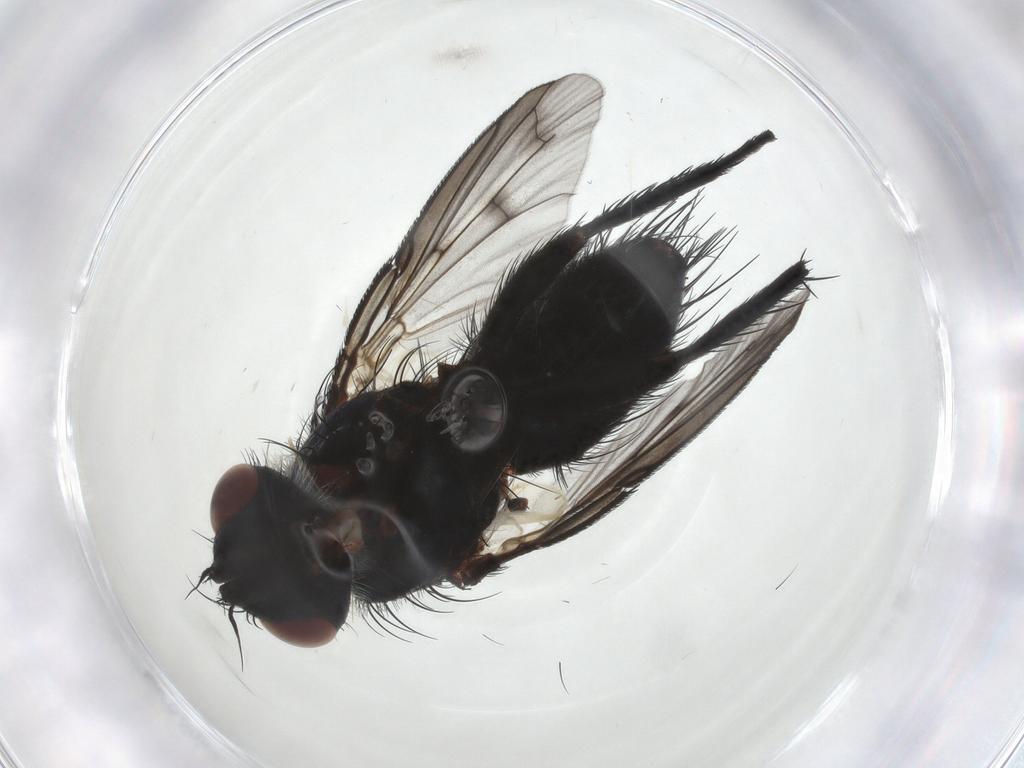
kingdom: Animalia
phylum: Arthropoda
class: Insecta
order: Diptera
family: Tachinidae
